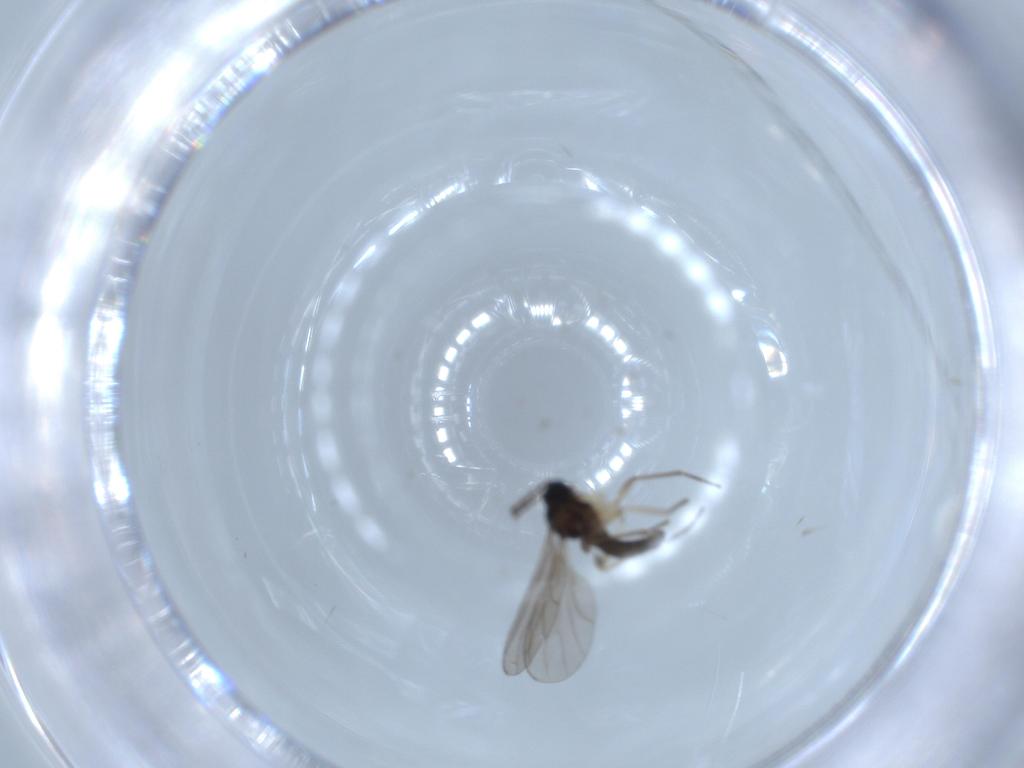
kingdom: Animalia
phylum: Arthropoda
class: Insecta
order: Diptera
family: Sciaridae
